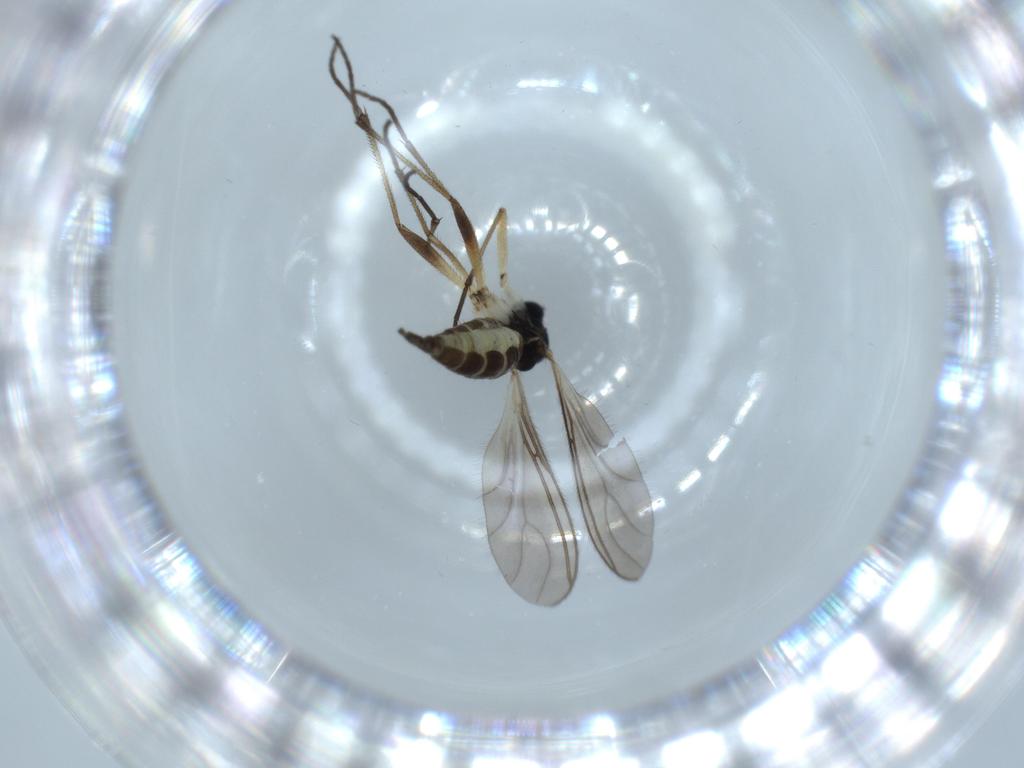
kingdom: Animalia
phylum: Arthropoda
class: Insecta
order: Diptera
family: Sciaridae
